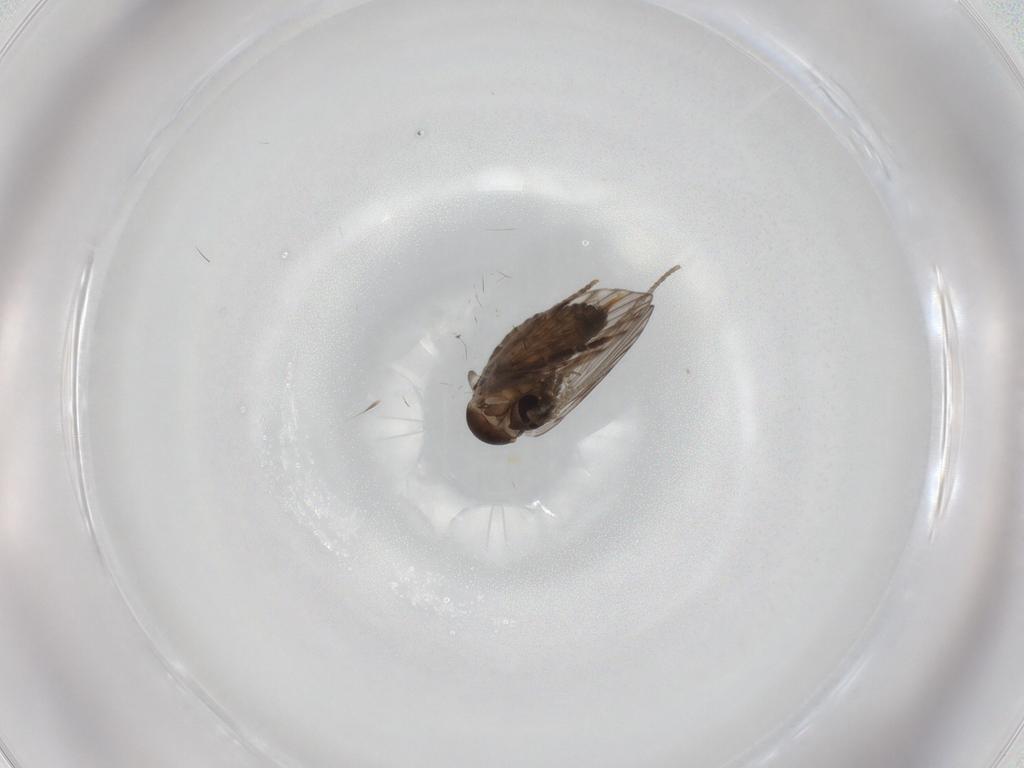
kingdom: Animalia
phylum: Arthropoda
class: Insecta
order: Diptera
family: Psychodidae
